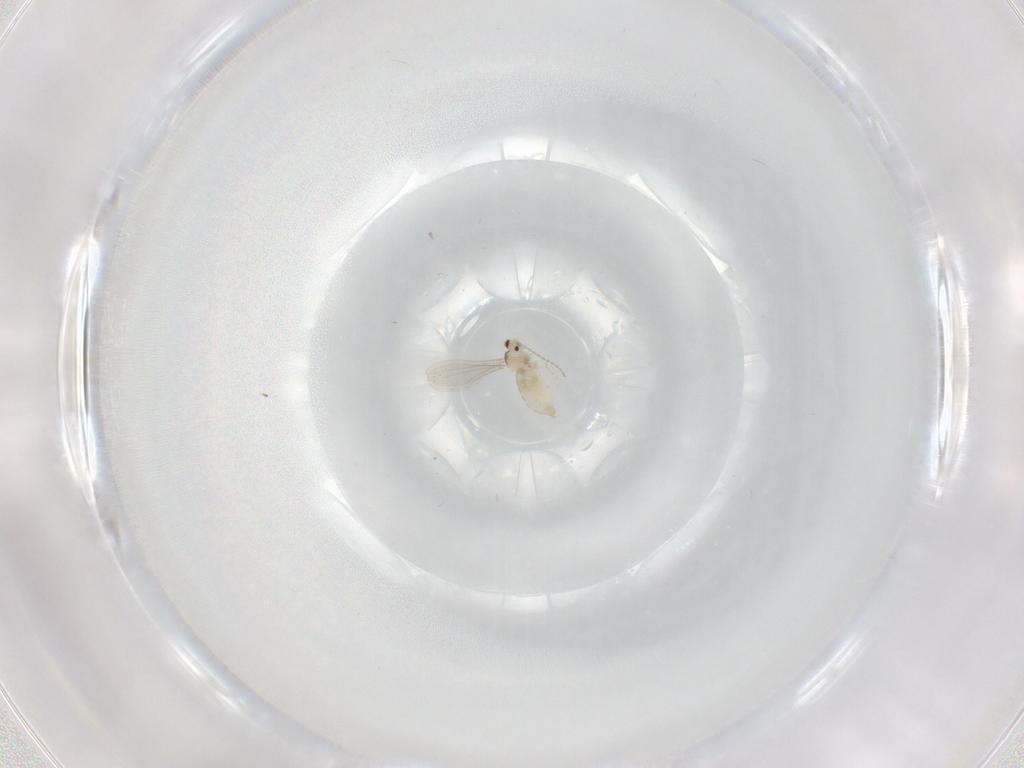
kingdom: Animalia
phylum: Arthropoda
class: Insecta
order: Diptera
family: Cecidomyiidae
